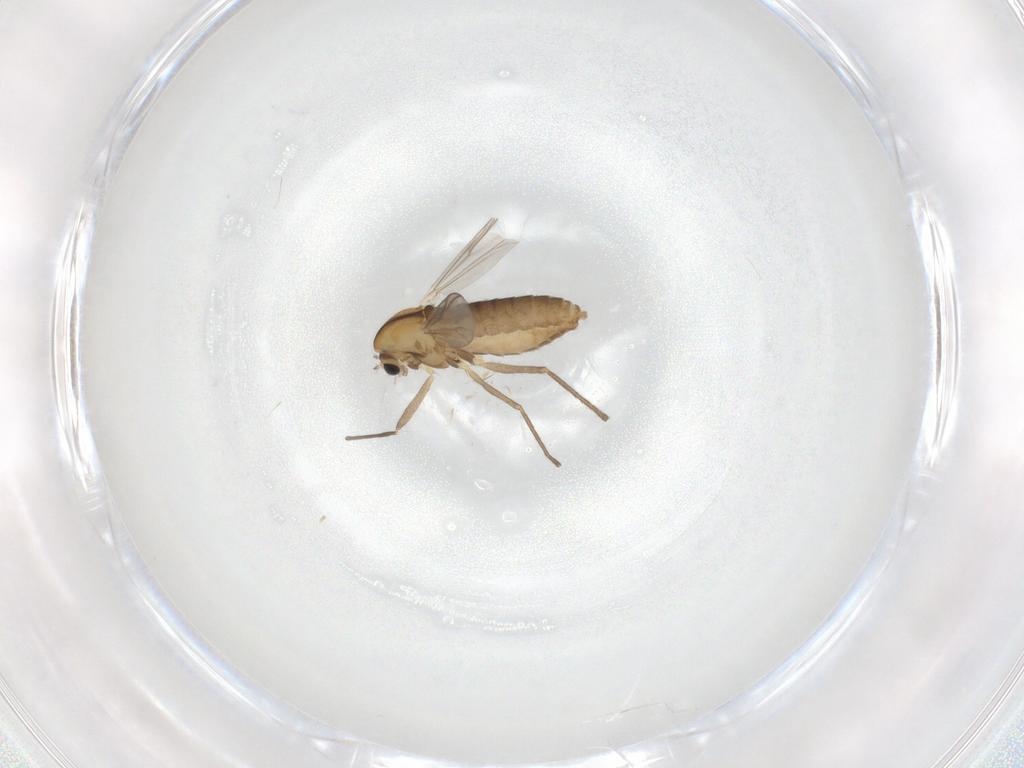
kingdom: Animalia
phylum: Arthropoda
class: Insecta
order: Diptera
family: Chironomidae
